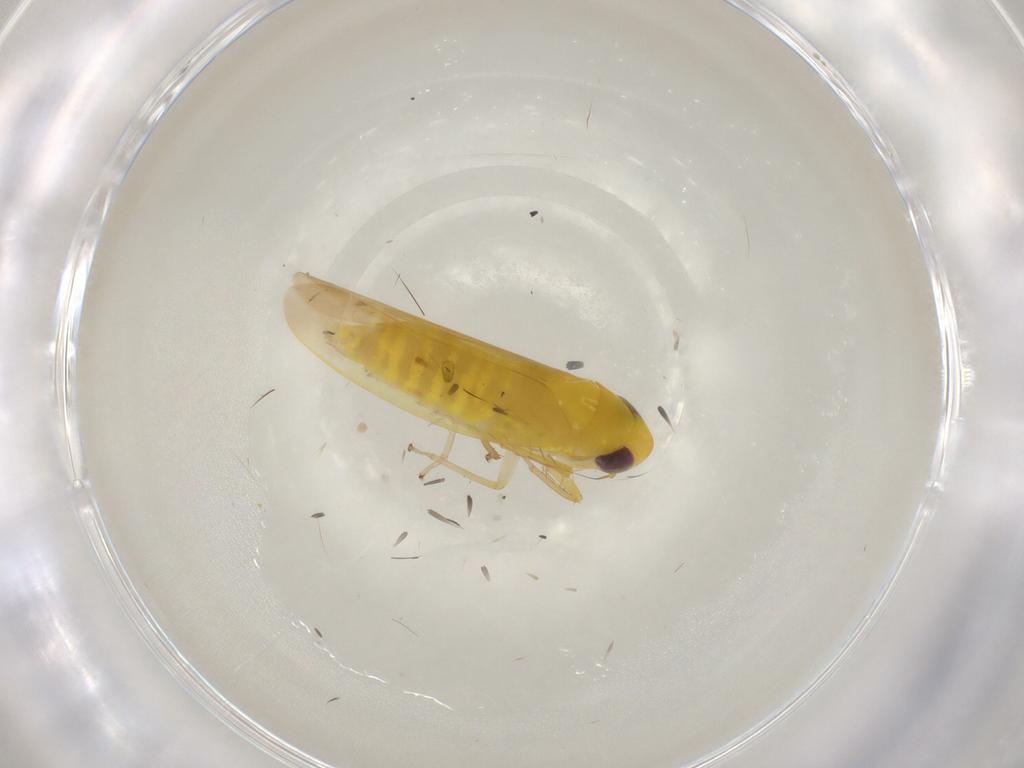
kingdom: Animalia
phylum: Arthropoda
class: Insecta
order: Hemiptera
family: Cicadellidae
